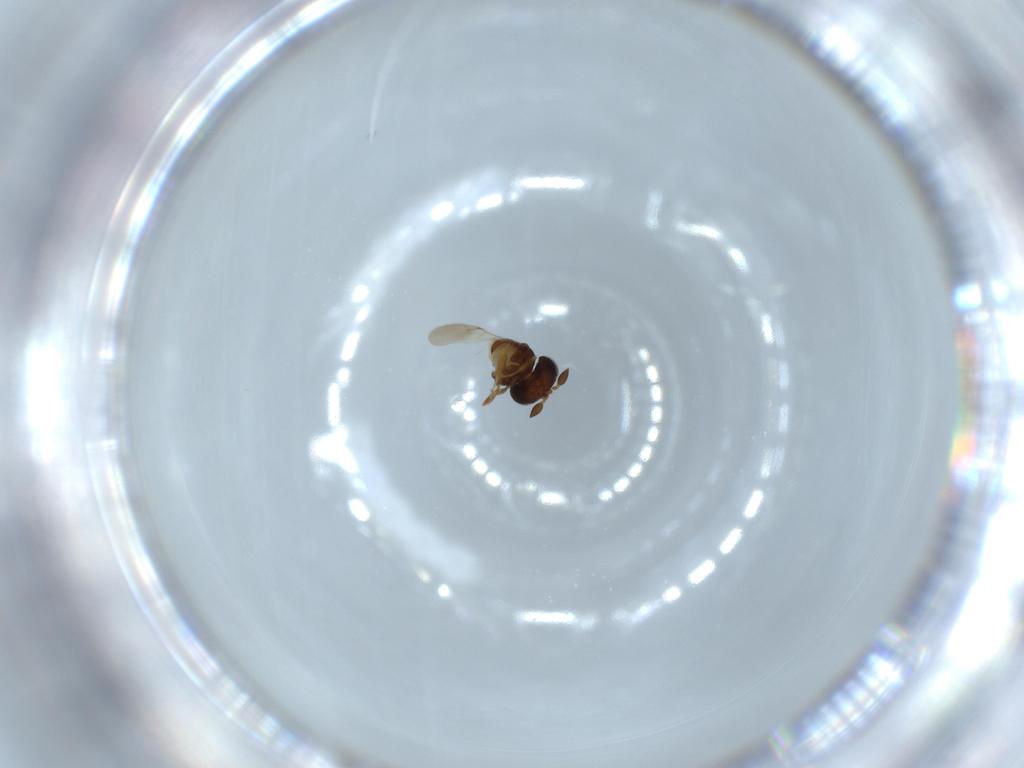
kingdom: Animalia
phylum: Arthropoda
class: Insecta
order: Hymenoptera
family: Scelionidae
